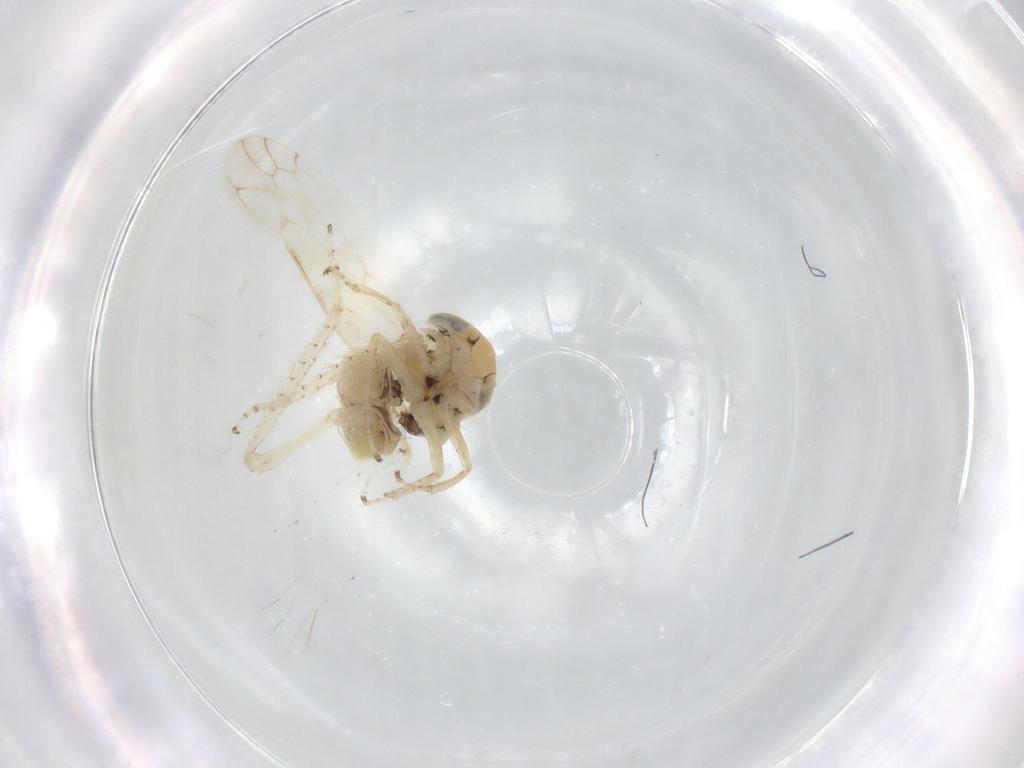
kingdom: Animalia
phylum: Arthropoda
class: Insecta
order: Hemiptera
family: Cicadellidae
